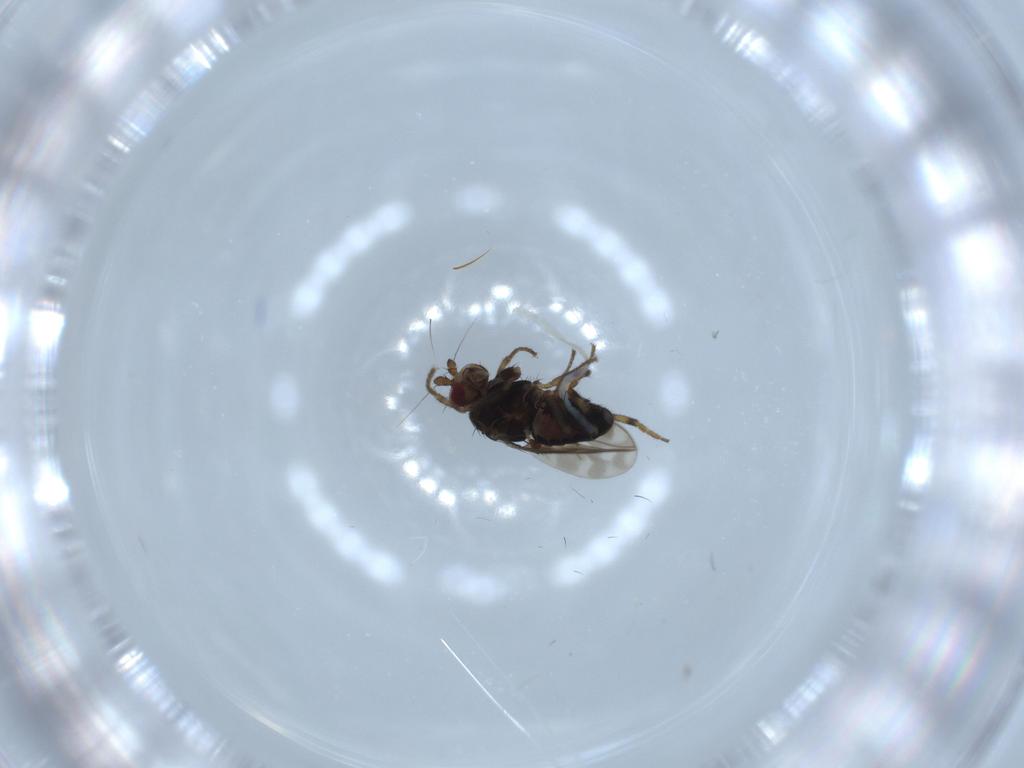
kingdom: Animalia
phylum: Arthropoda
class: Insecta
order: Diptera
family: Sphaeroceridae
